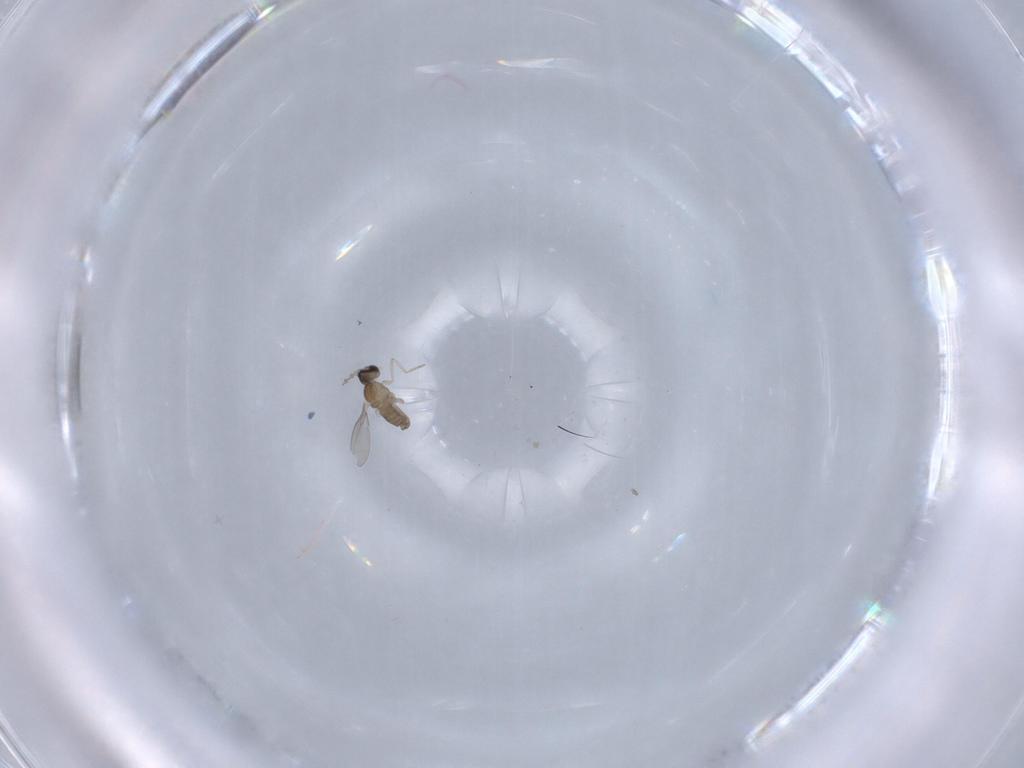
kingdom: Animalia
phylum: Arthropoda
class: Insecta
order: Diptera
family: Cecidomyiidae
